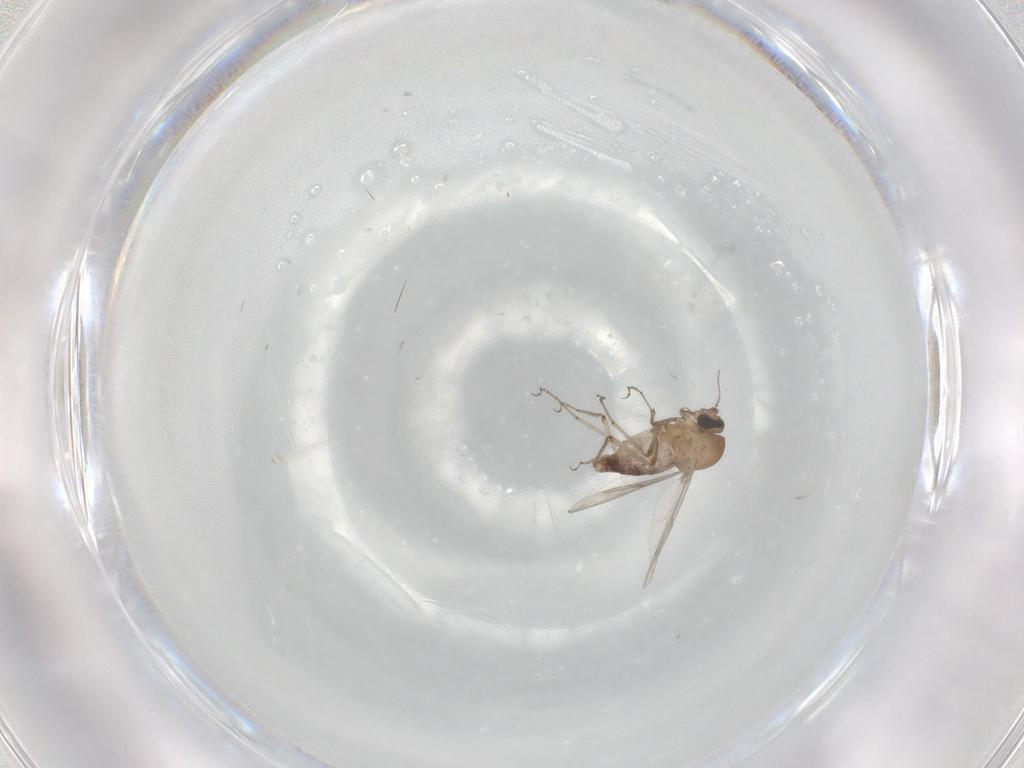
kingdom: Animalia
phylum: Arthropoda
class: Insecta
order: Diptera
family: Ceratopogonidae
